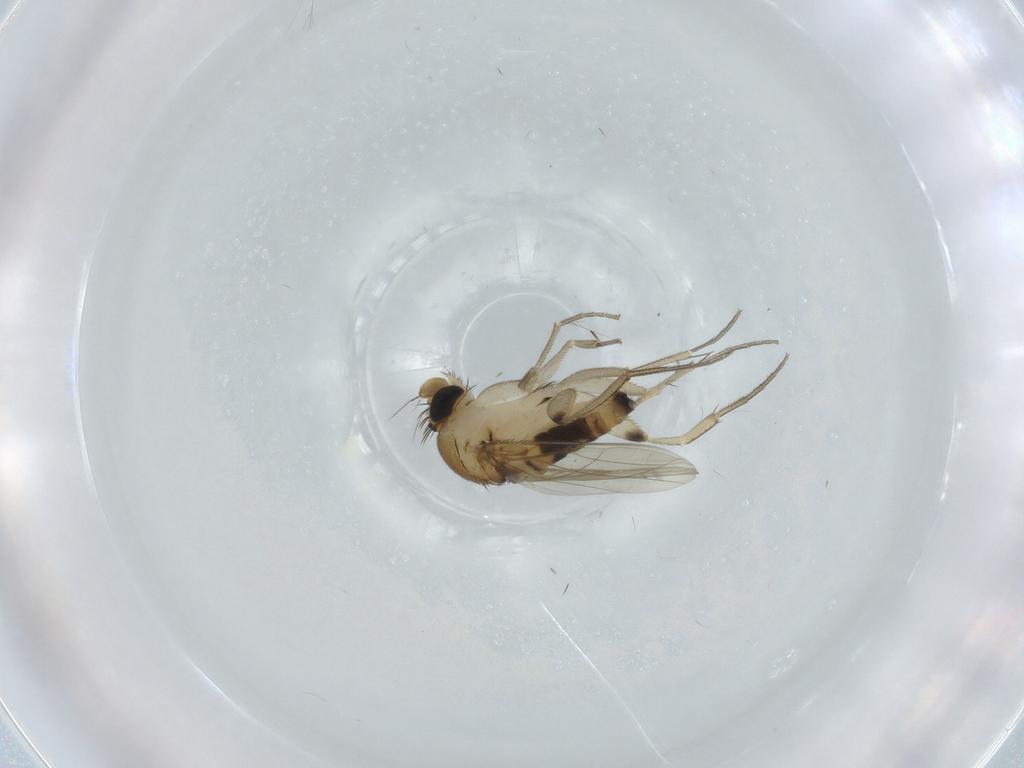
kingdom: Animalia
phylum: Arthropoda
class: Insecta
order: Diptera
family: Phoridae
